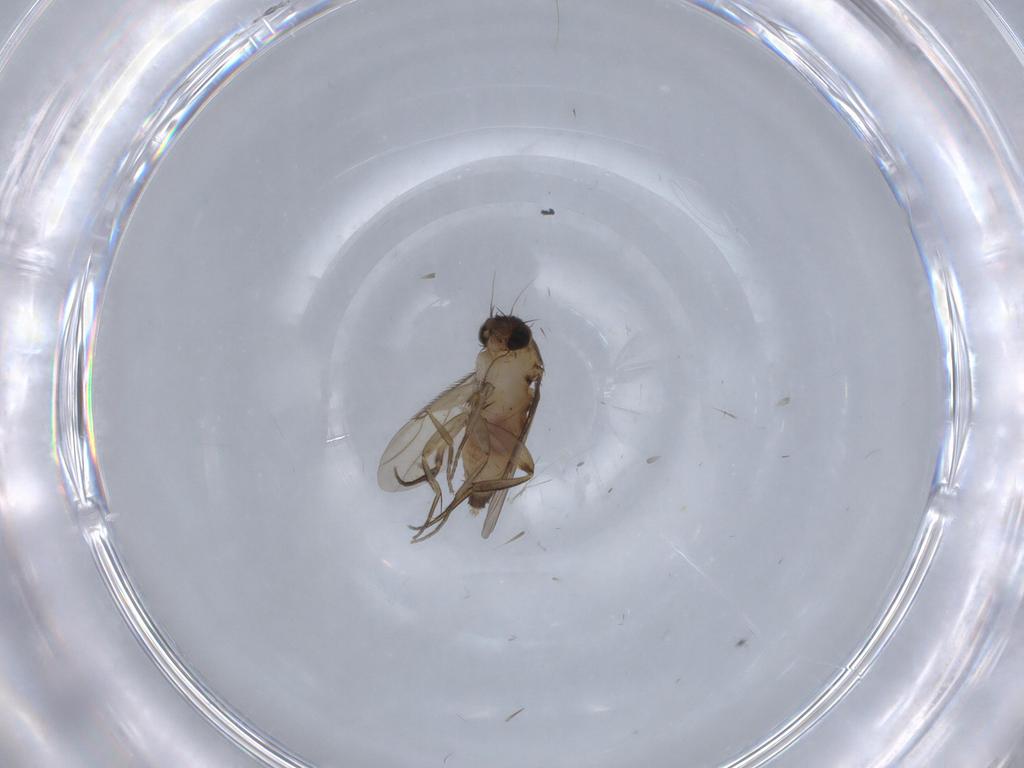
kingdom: Animalia
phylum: Arthropoda
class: Insecta
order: Diptera
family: Phoridae
